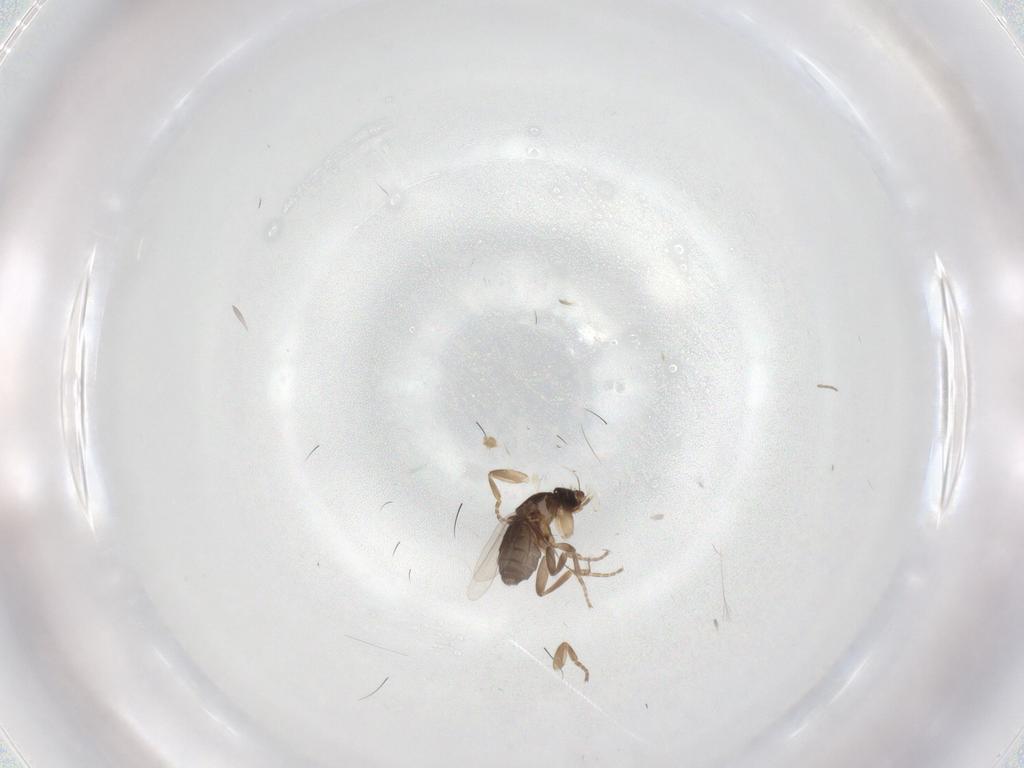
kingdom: Animalia
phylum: Arthropoda
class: Insecta
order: Diptera
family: Phoridae
